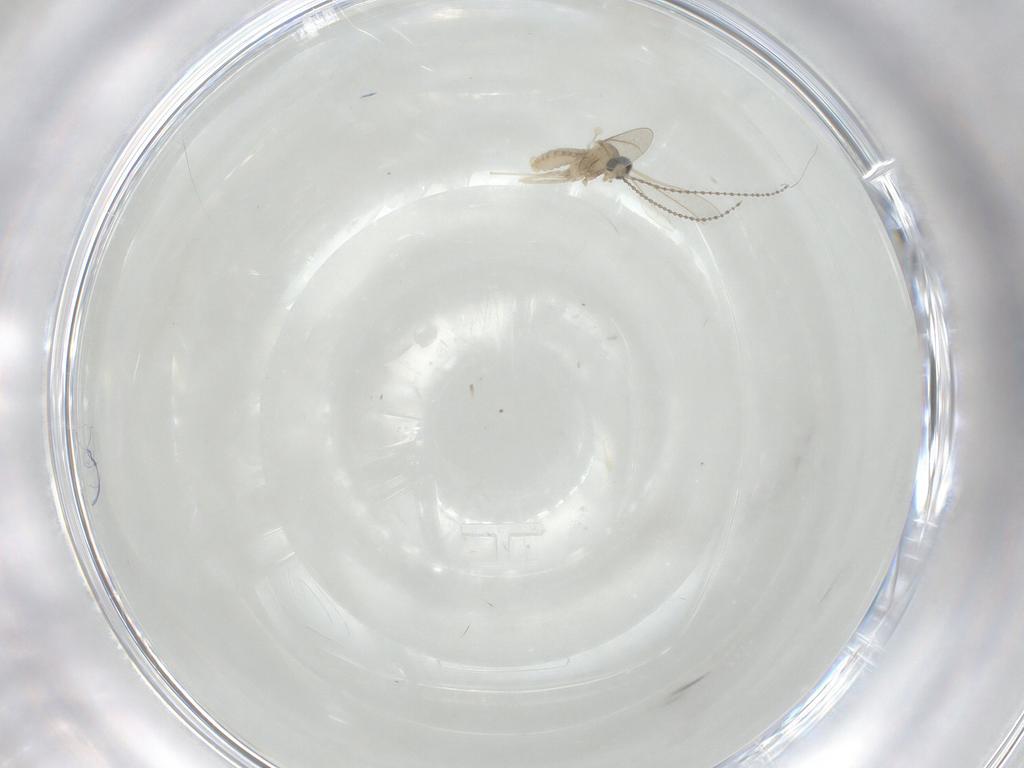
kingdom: Animalia
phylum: Arthropoda
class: Insecta
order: Diptera
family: Cecidomyiidae
